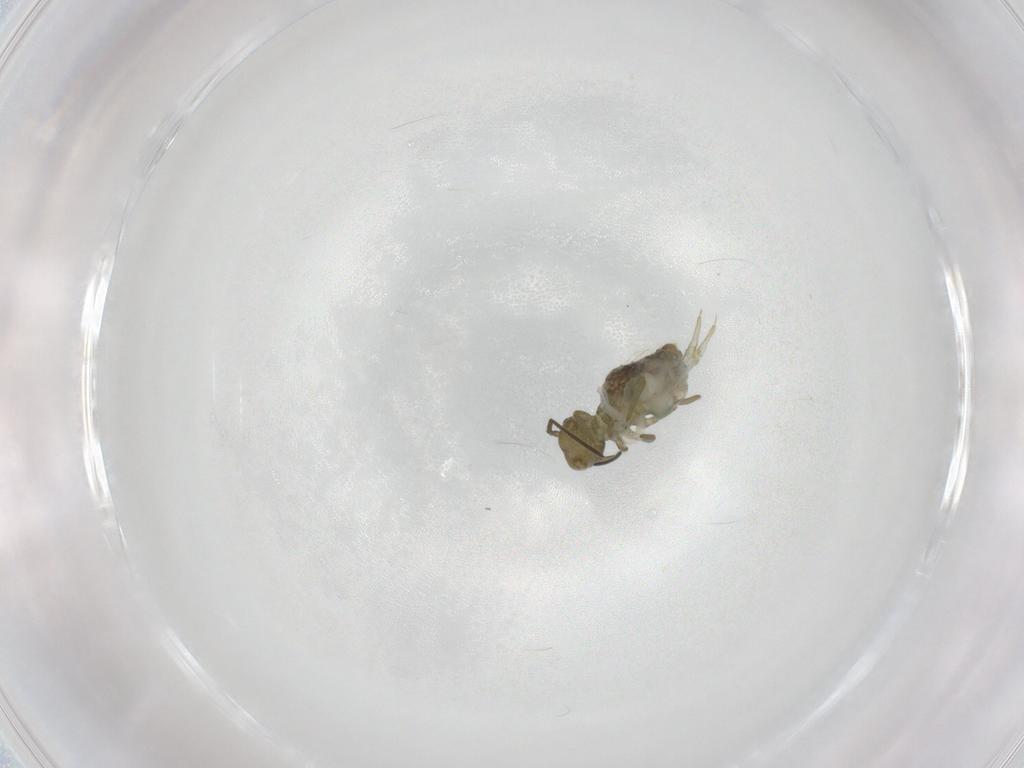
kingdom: Animalia
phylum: Arthropoda
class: Collembola
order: Symphypleona
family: Sminthuridae
